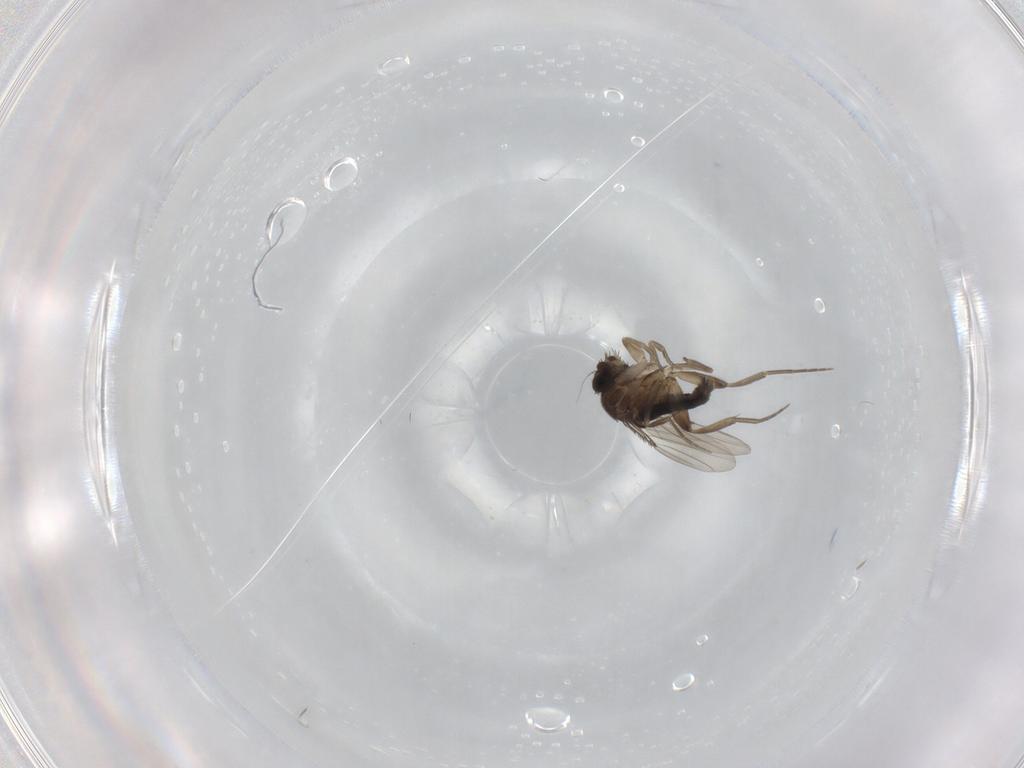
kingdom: Animalia
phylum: Arthropoda
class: Insecta
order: Diptera
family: Phoridae
